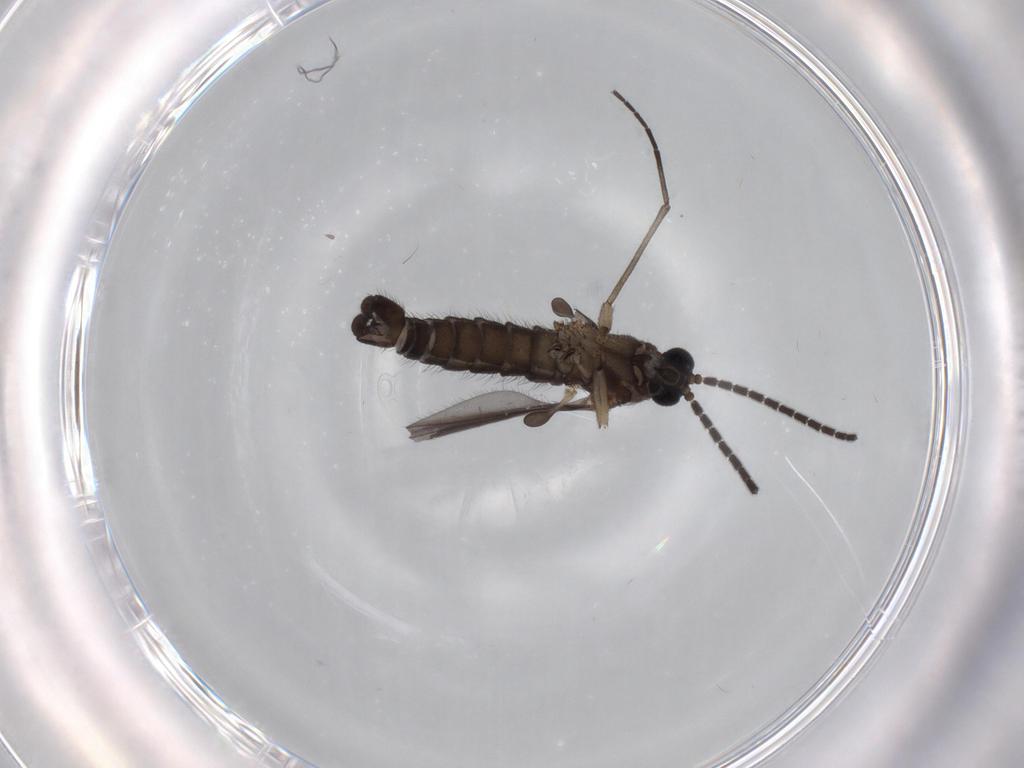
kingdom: Animalia
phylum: Arthropoda
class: Insecta
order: Diptera
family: Sciaridae
